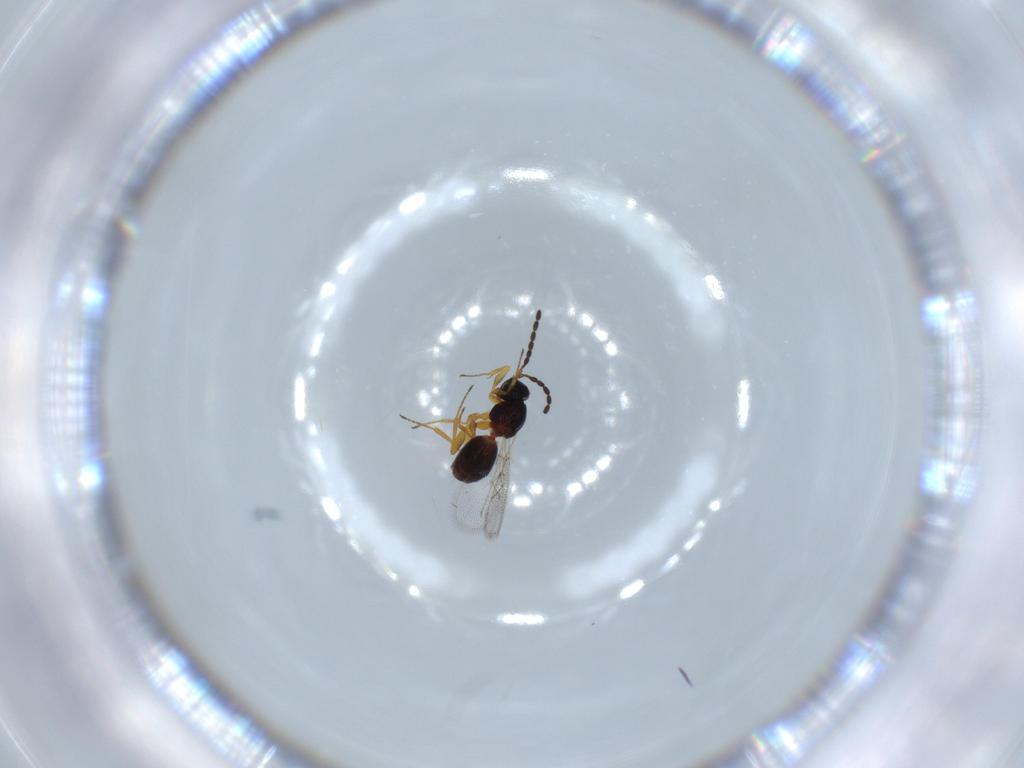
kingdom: Animalia
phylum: Arthropoda
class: Insecta
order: Hymenoptera
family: Figitidae
